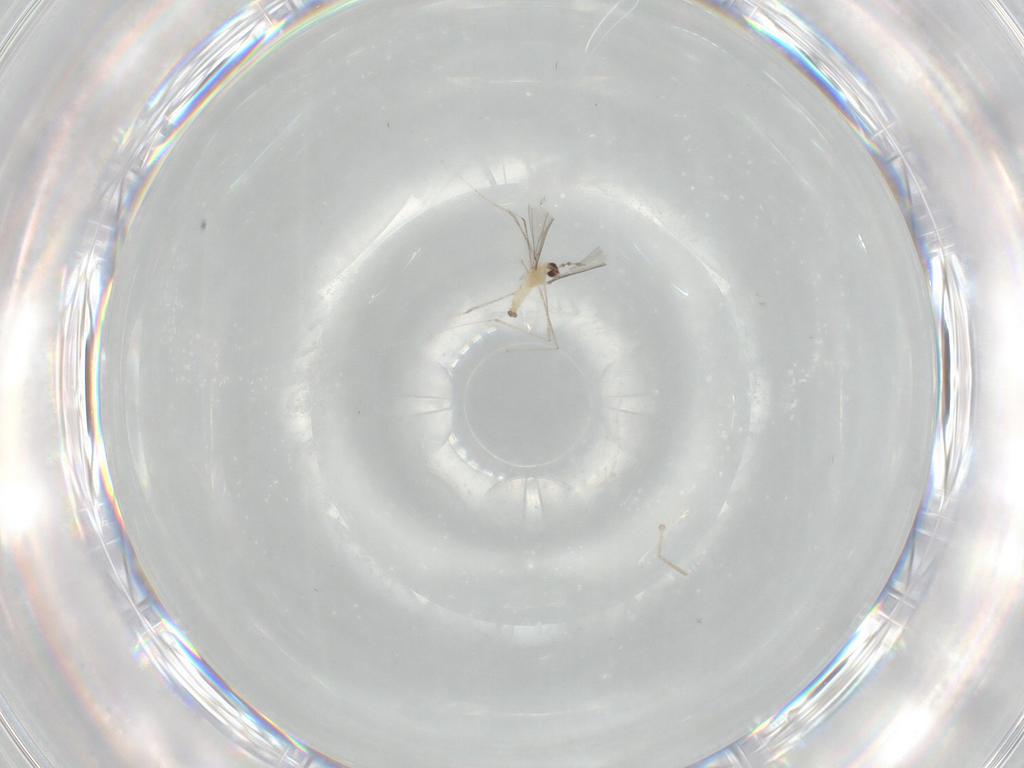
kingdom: Animalia
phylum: Arthropoda
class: Insecta
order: Diptera
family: Cecidomyiidae
